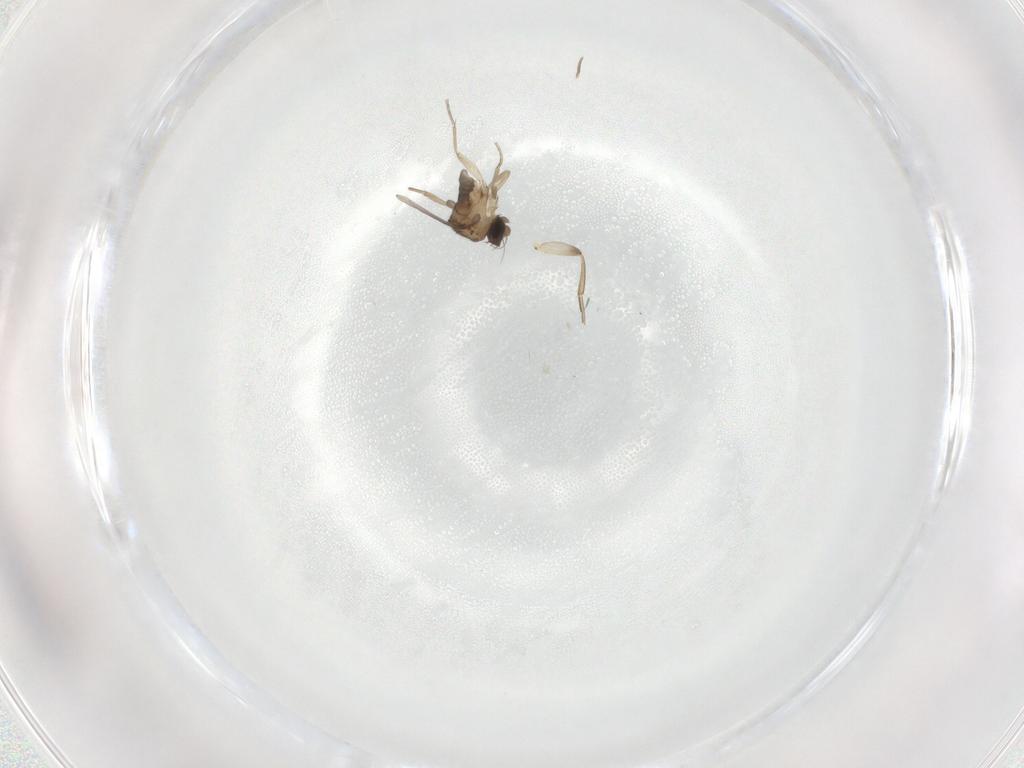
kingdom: Animalia
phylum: Arthropoda
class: Insecta
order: Diptera
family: Phoridae
